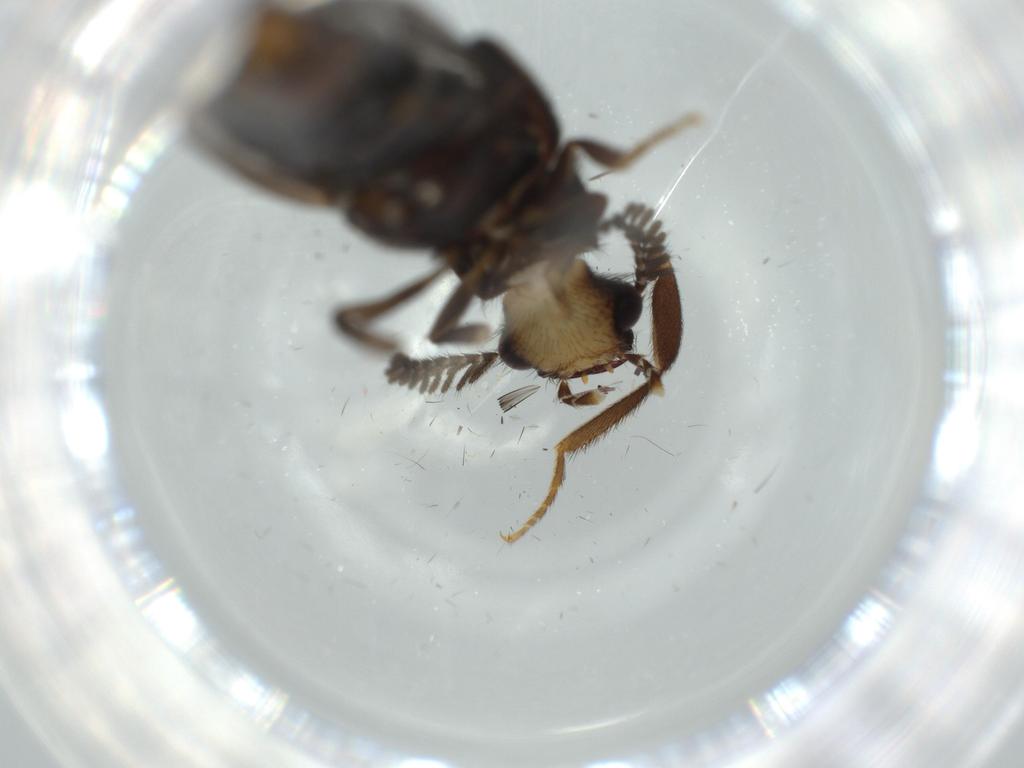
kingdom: Animalia
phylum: Arthropoda
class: Insecta
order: Coleoptera
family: Phengodidae
